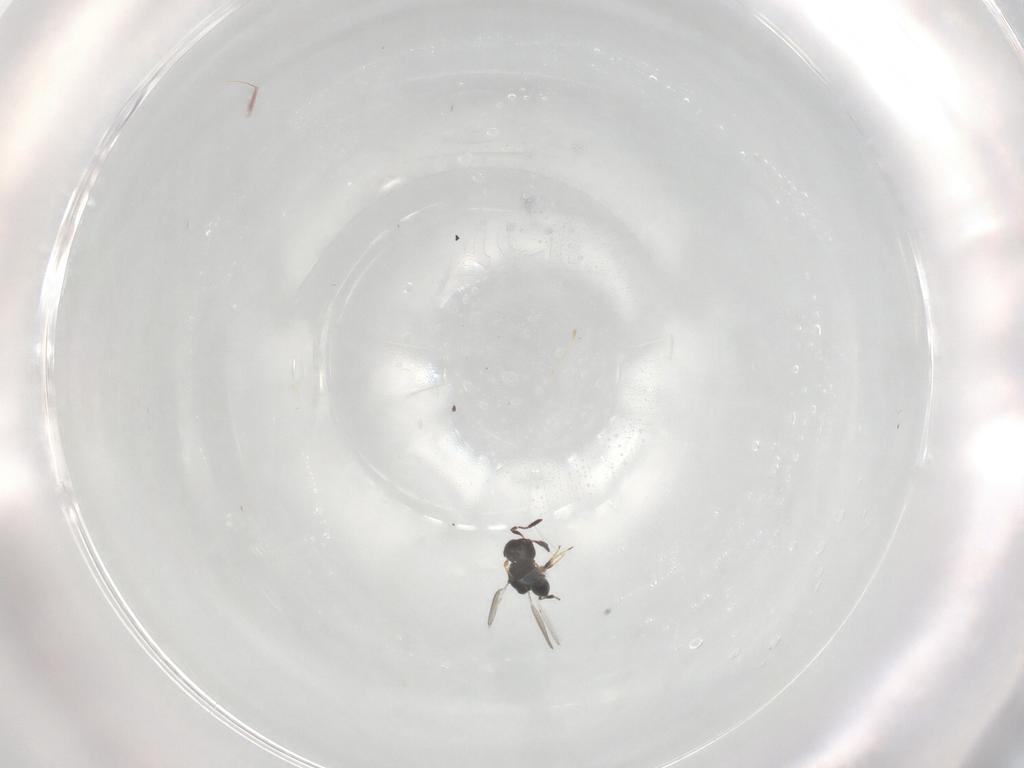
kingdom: Animalia
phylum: Arthropoda
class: Insecta
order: Hymenoptera
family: Platygastridae
